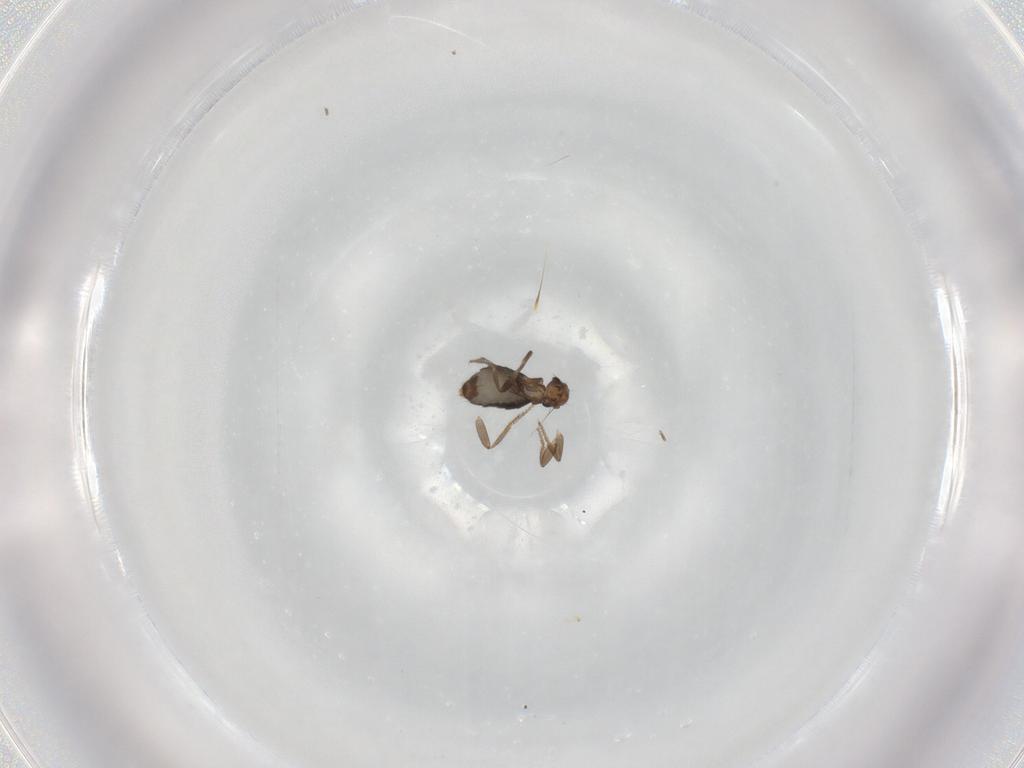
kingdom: Animalia
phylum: Arthropoda
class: Insecta
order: Diptera
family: Phoridae
